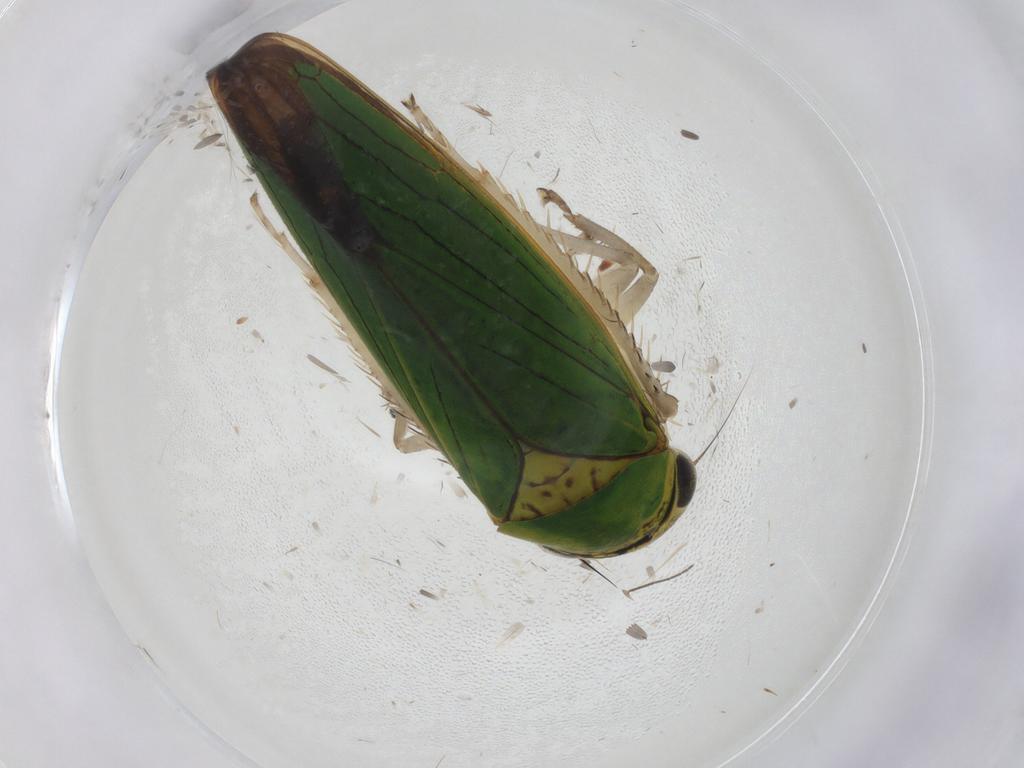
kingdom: Animalia
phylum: Arthropoda
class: Insecta
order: Hemiptera
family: Cicadellidae
